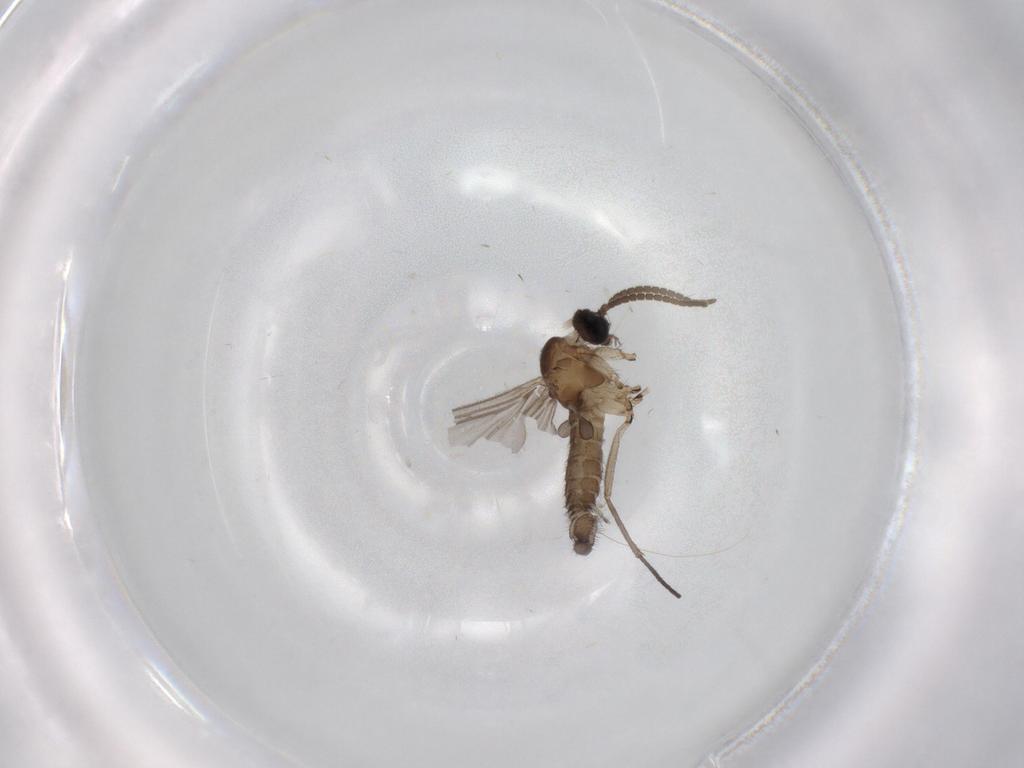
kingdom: Animalia
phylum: Arthropoda
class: Insecta
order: Diptera
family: Sciaridae
